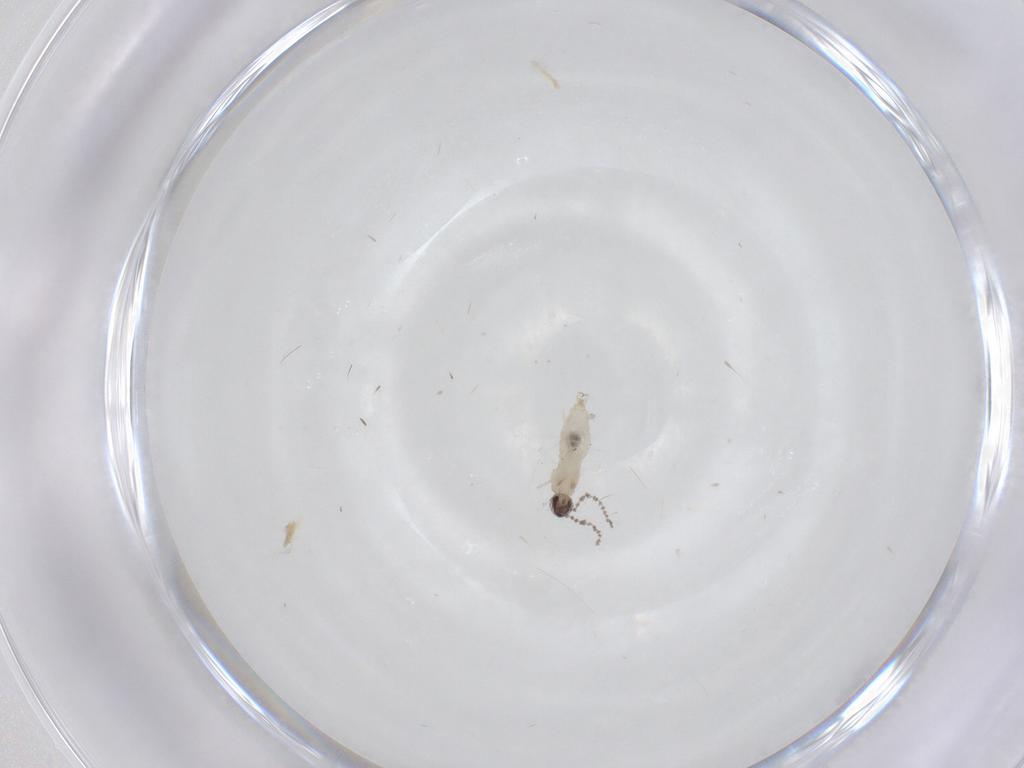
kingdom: Animalia
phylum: Arthropoda
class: Insecta
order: Diptera
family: Cecidomyiidae
